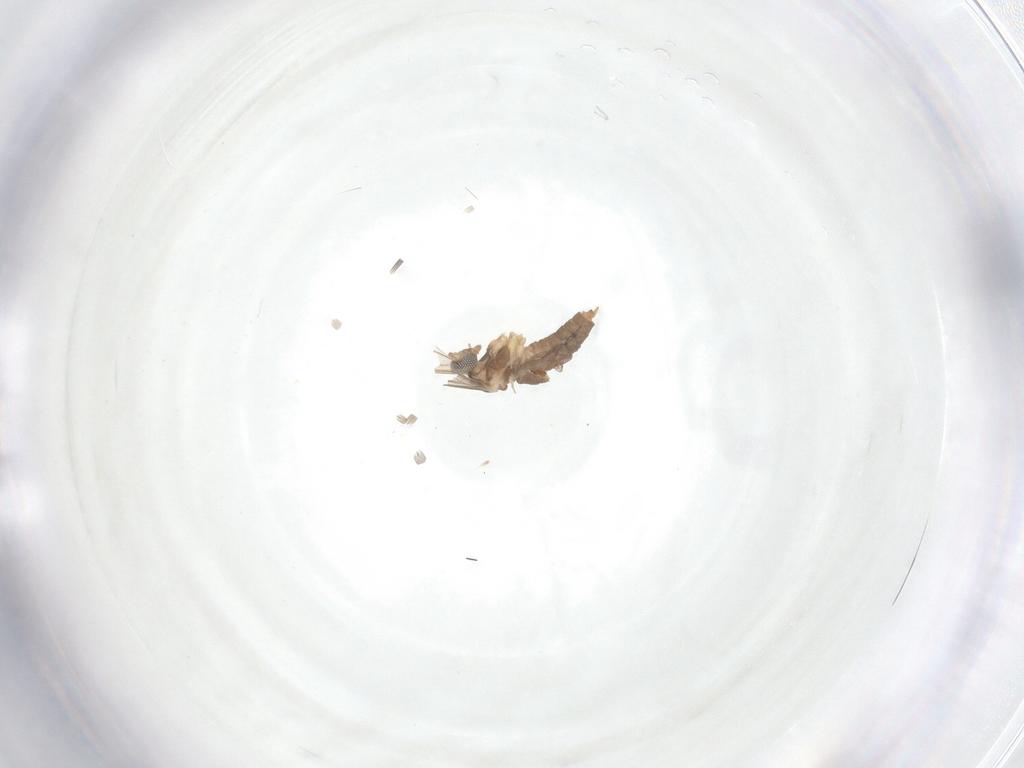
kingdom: Animalia
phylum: Arthropoda
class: Insecta
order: Diptera
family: Cecidomyiidae
